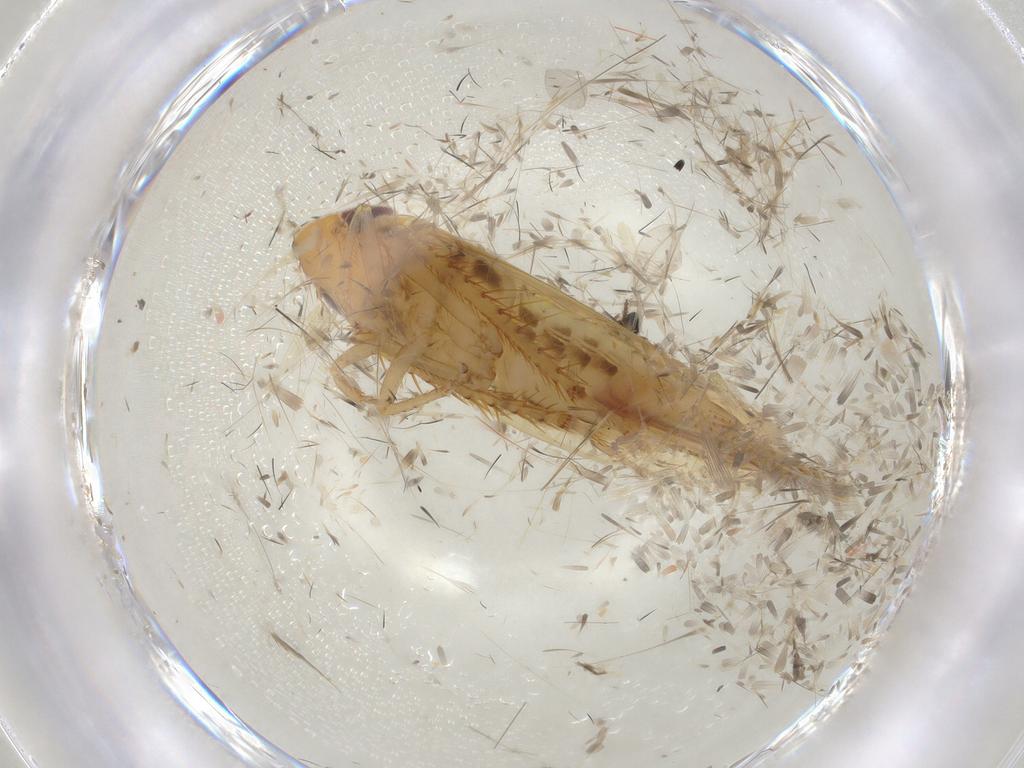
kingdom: Animalia
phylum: Arthropoda
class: Insecta
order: Hemiptera
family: Cicadellidae
